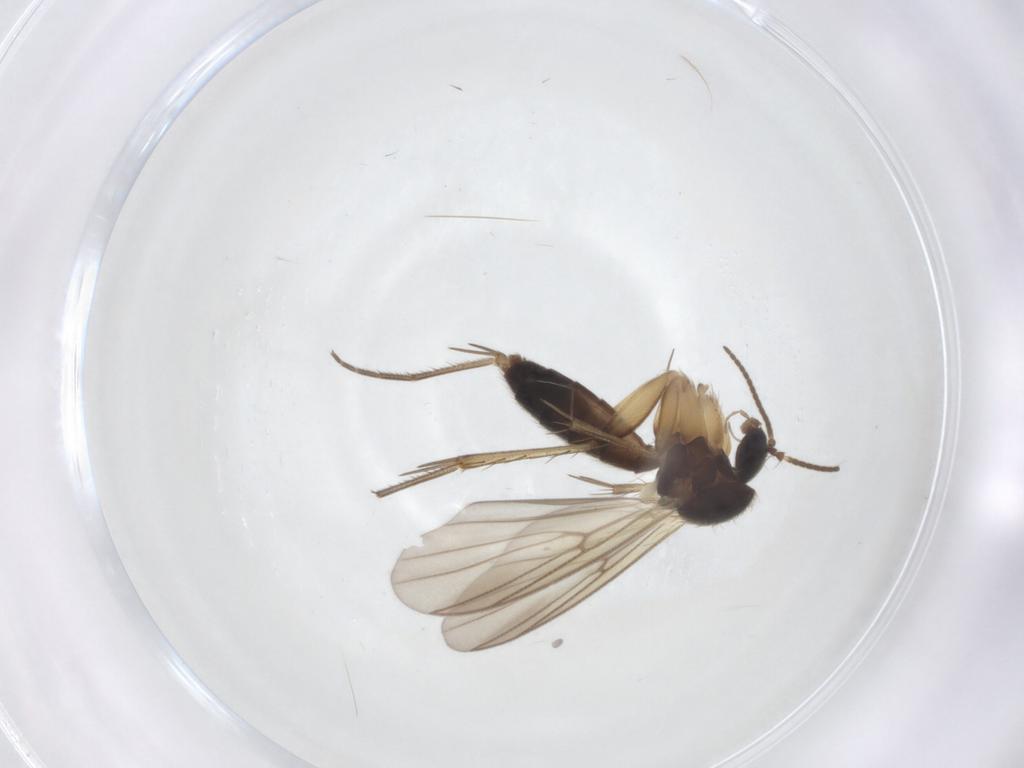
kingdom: Animalia
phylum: Arthropoda
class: Insecta
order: Diptera
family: Mycetophilidae
